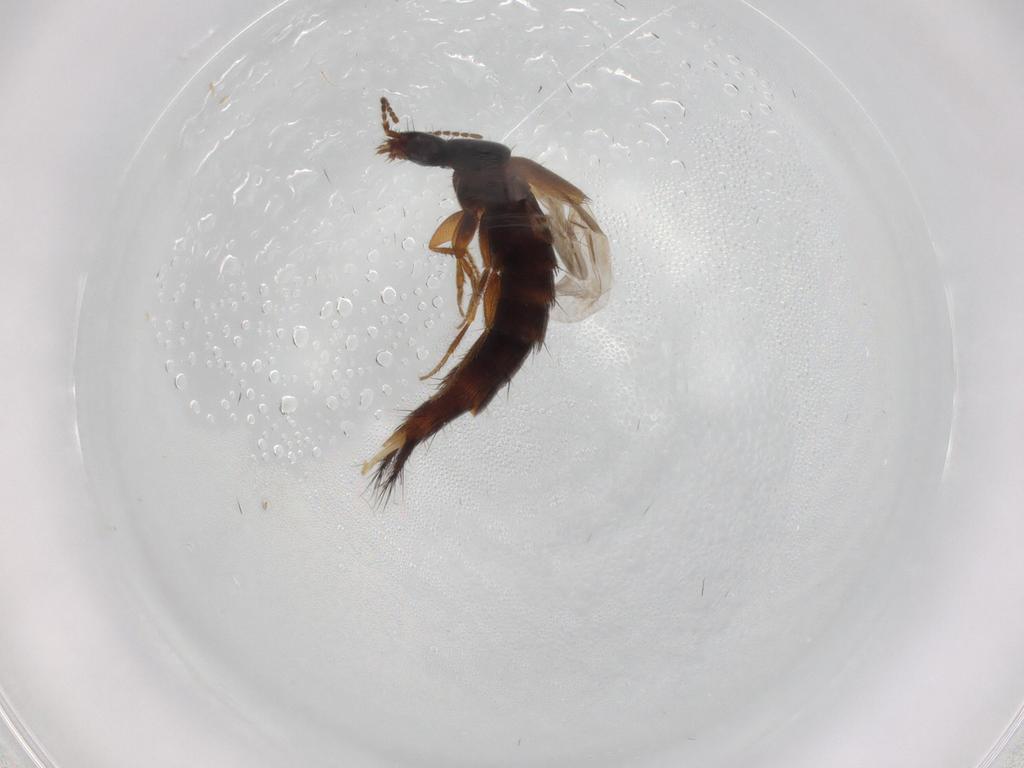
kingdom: Animalia
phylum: Arthropoda
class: Insecta
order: Coleoptera
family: Staphylinidae
